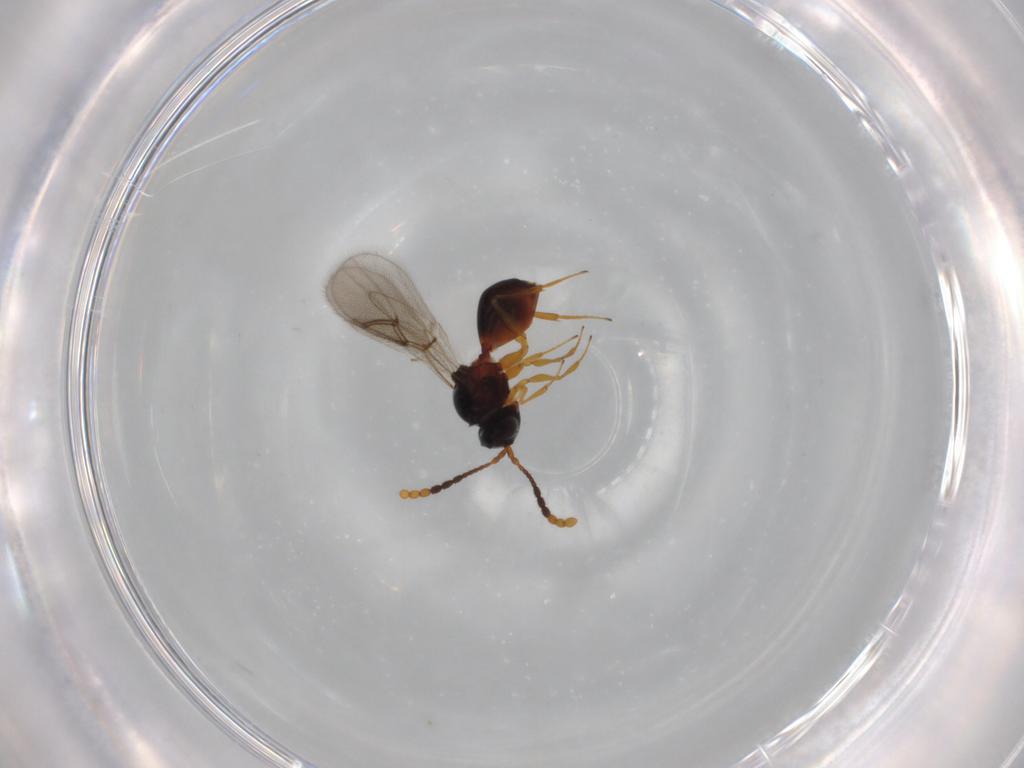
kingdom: Animalia
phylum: Arthropoda
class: Insecta
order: Hymenoptera
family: Figitidae
